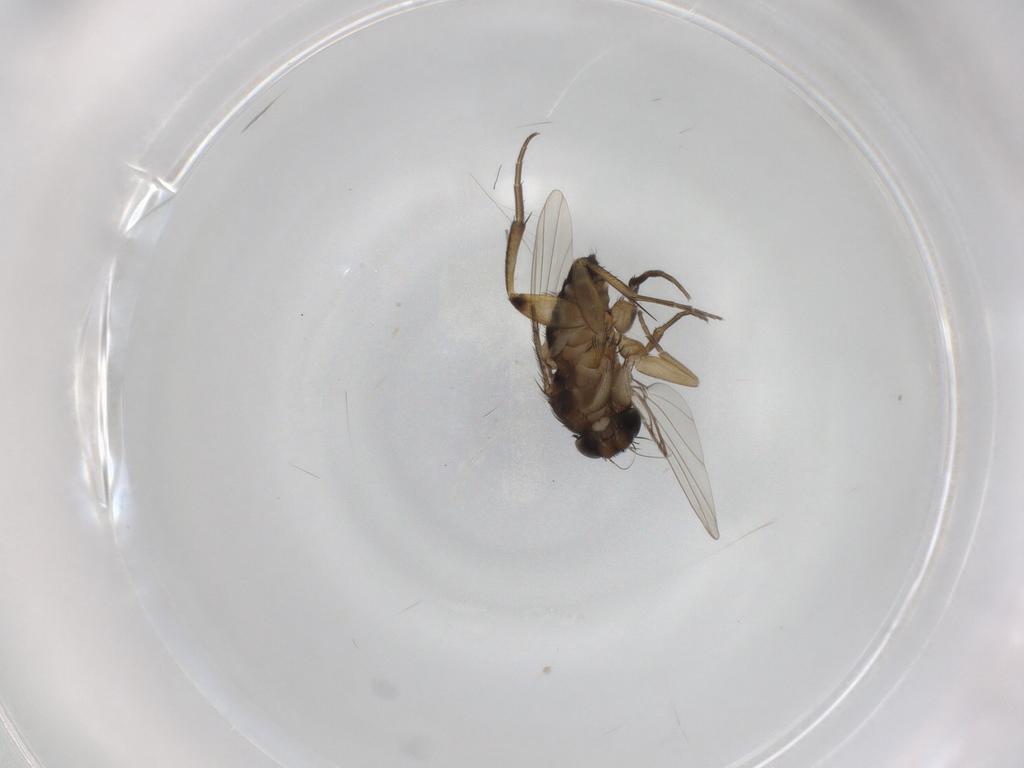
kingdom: Animalia
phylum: Arthropoda
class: Insecta
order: Diptera
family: Phoridae
